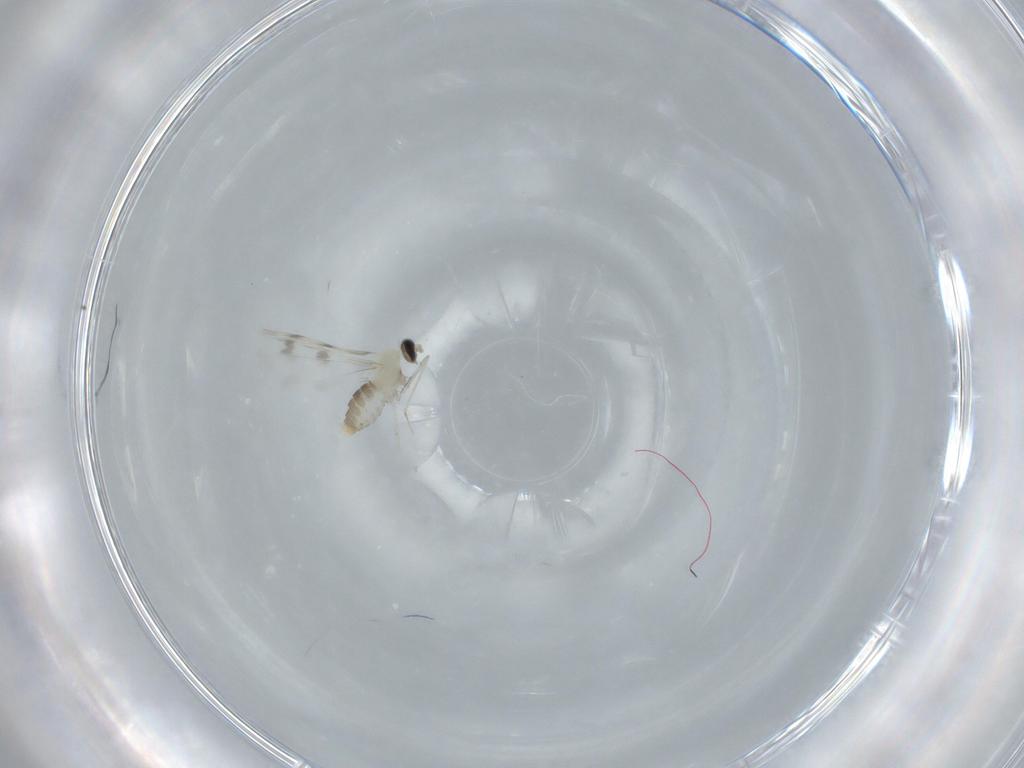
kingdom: Animalia
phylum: Arthropoda
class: Insecta
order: Diptera
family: Cecidomyiidae
